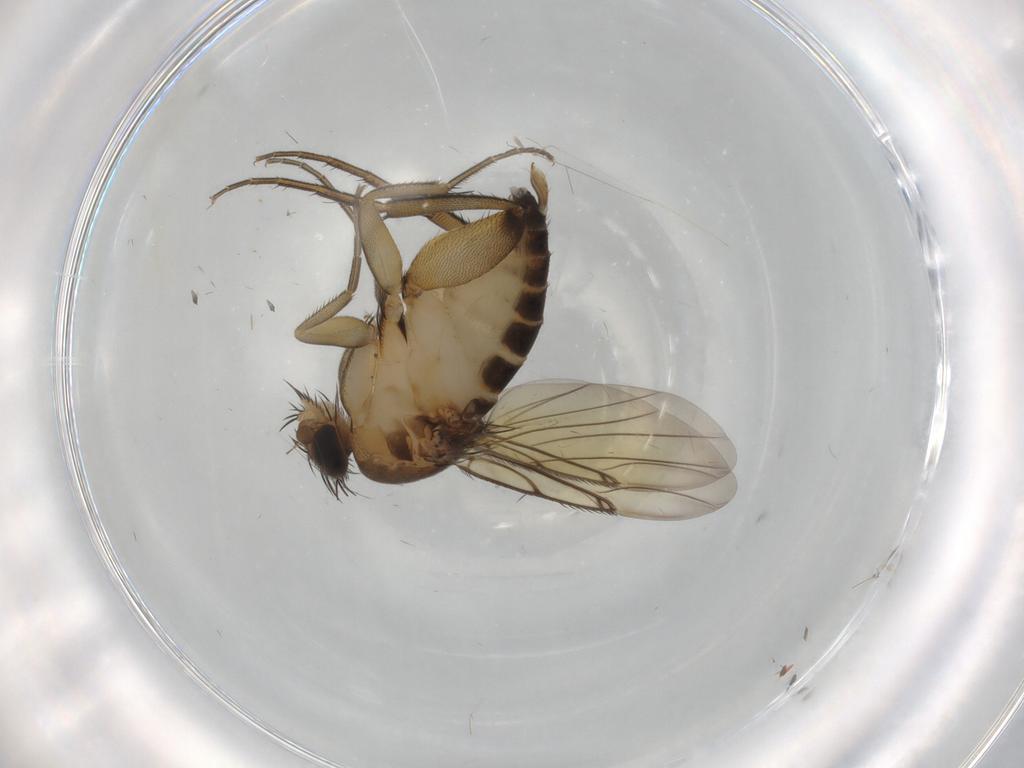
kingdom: Animalia
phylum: Arthropoda
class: Insecta
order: Diptera
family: Phoridae
